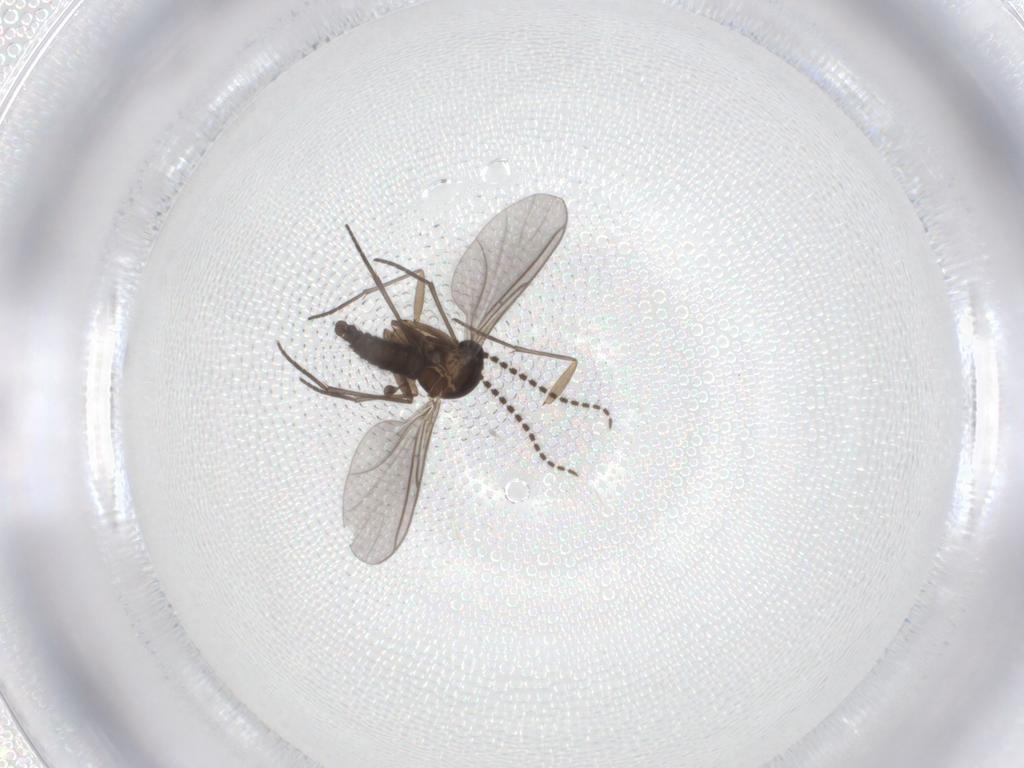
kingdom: Animalia
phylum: Arthropoda
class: Insecta
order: Diptera
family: Sciaridae
